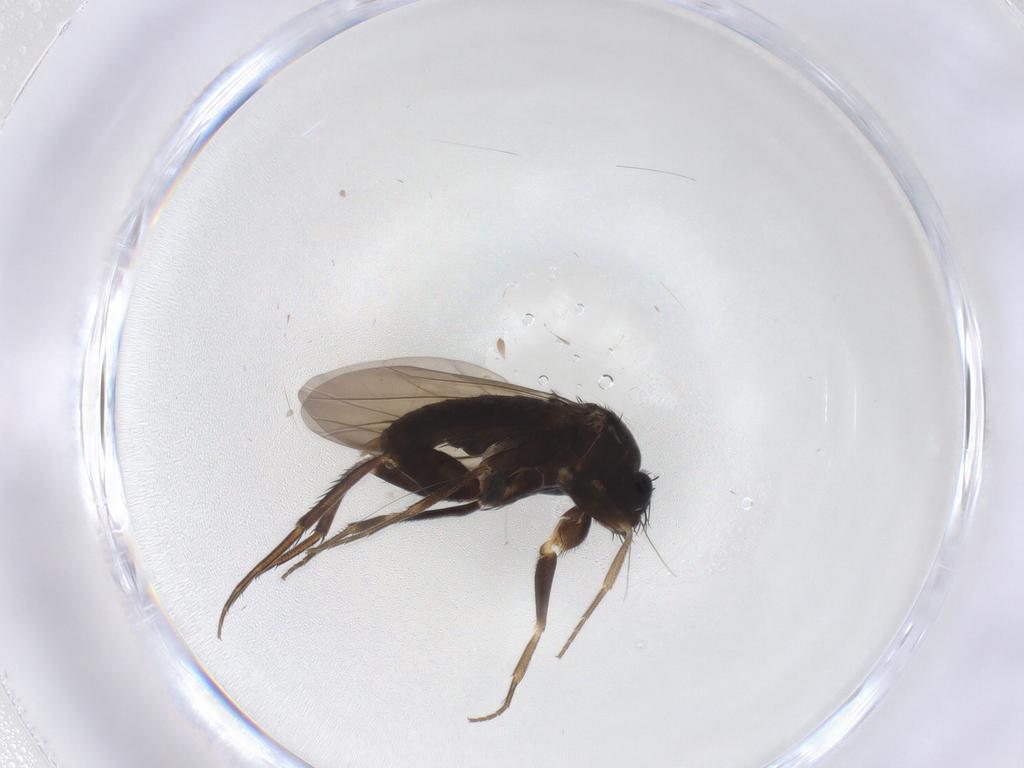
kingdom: Animalia
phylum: Arthropoda
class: Insecta
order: Diptera
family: Phoridae
